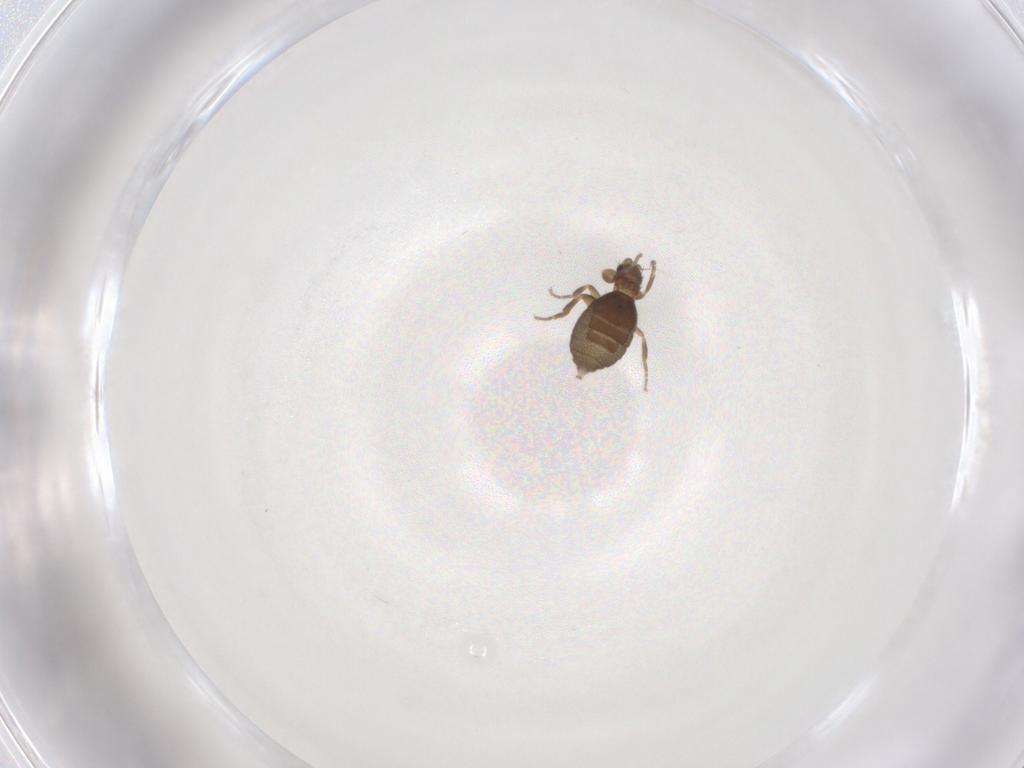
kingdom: Animalia
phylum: Arthropoda
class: Insecta
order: Diptera
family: Phoridae
